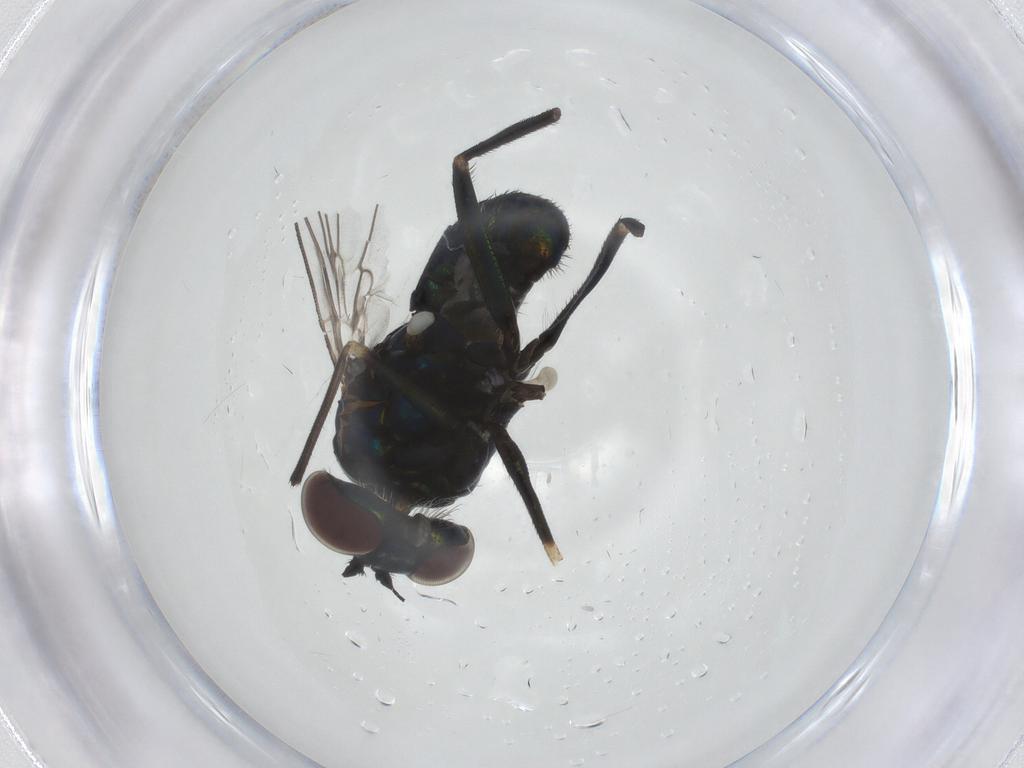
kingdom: Animalia
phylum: Arthropoda
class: Insecta
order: Diptera
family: Dolichopodidae
